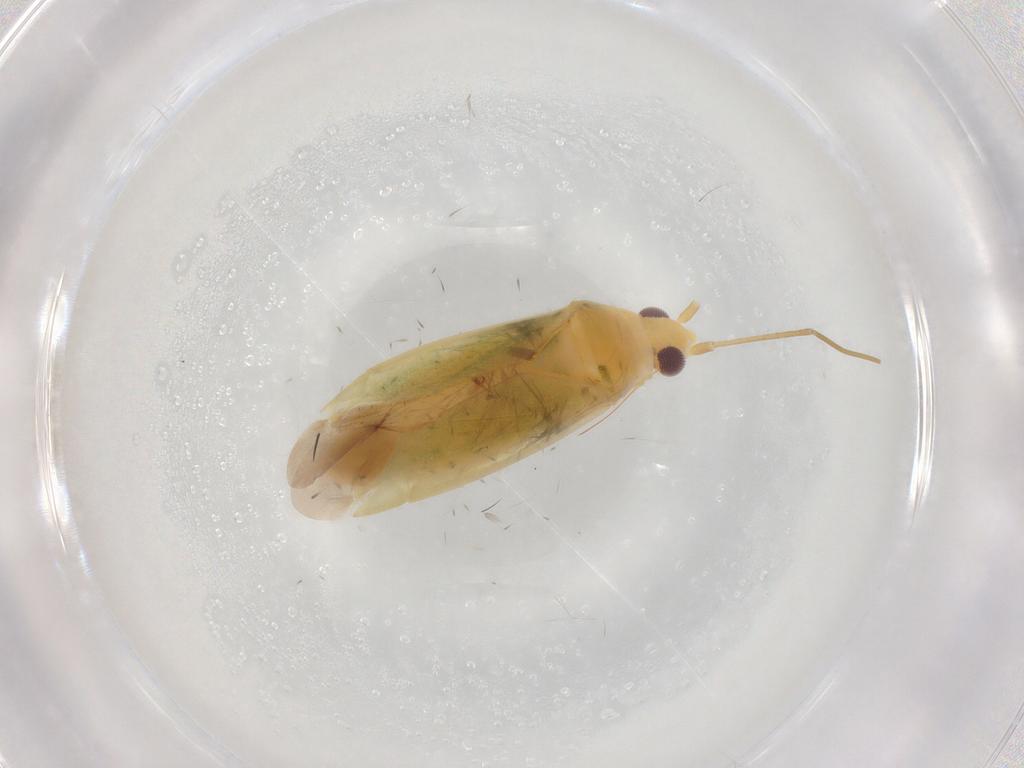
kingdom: Animalia
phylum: Arthropoda
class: Insecta
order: Hemiptera
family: Miridae
